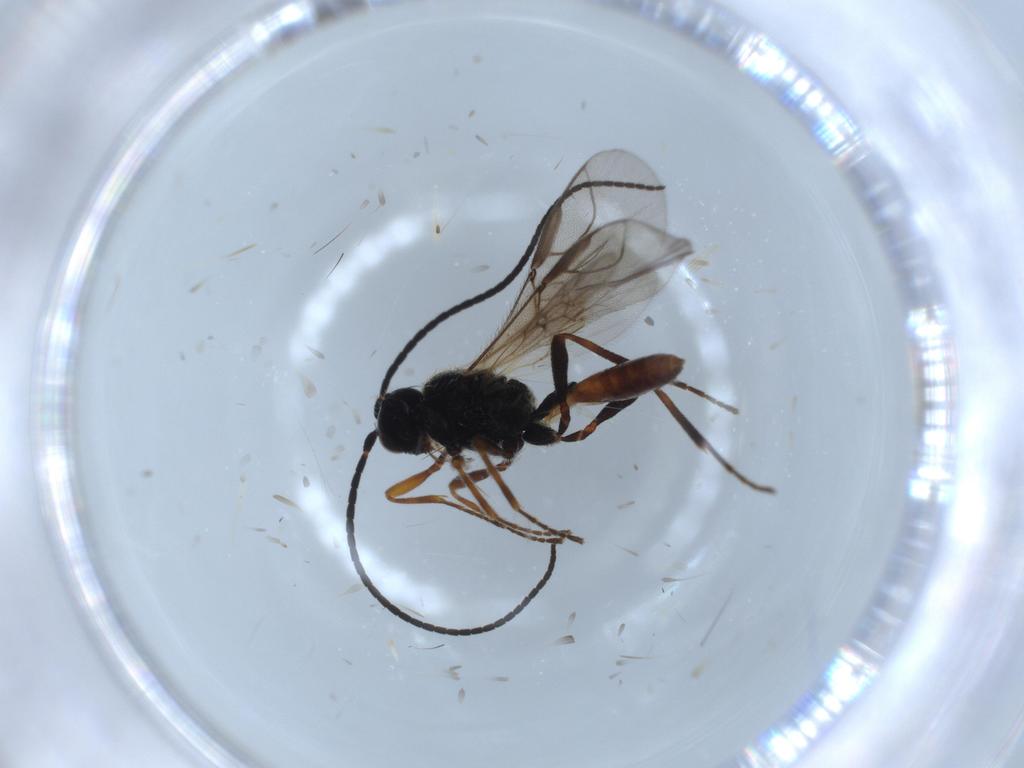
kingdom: Animalia
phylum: Arthropoda
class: Insecta
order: Hymenoptera
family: Braconidae
